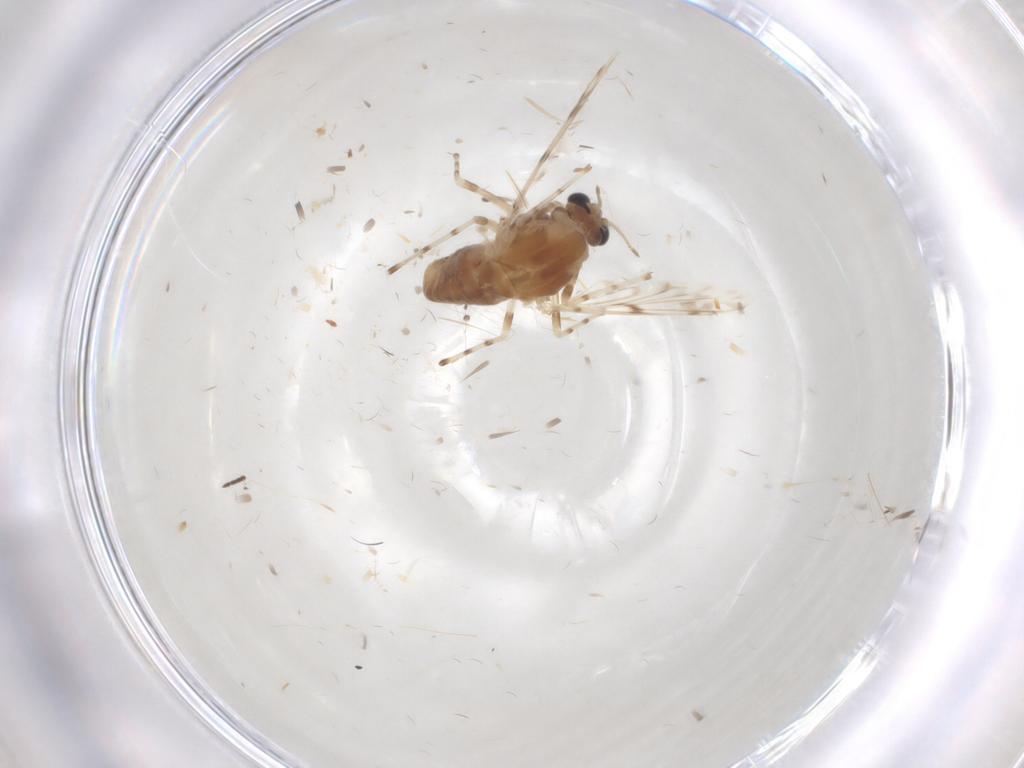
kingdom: Animalia
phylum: Arthropoda
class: Insecta
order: Diptera
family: Chironomidae
